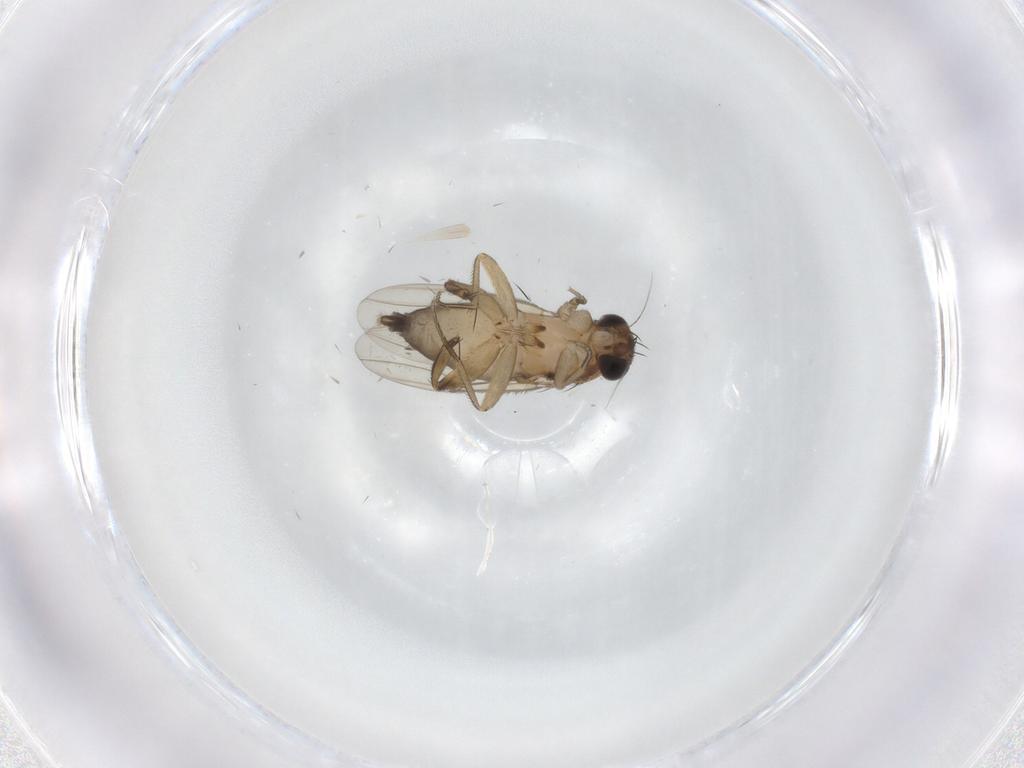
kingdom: Animalia
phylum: Arthropoda
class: Insecta
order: Diptera
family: Phoridae
